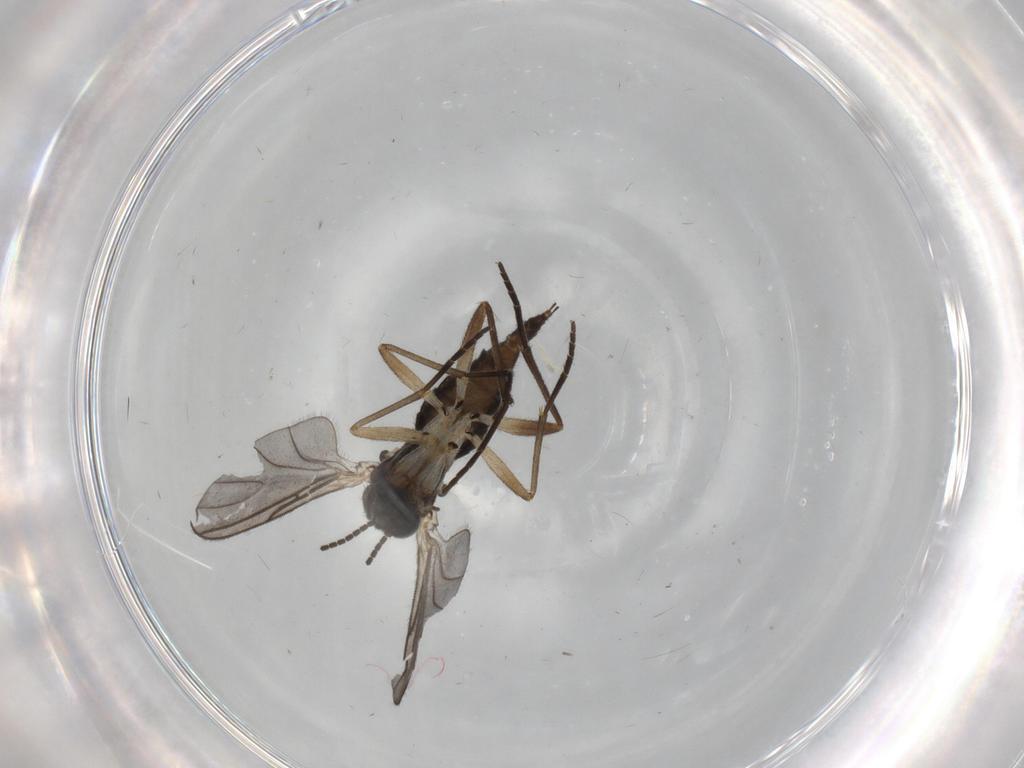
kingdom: Animalia
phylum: Arthropoda
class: Insecta
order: Diptera
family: Sciaridae
